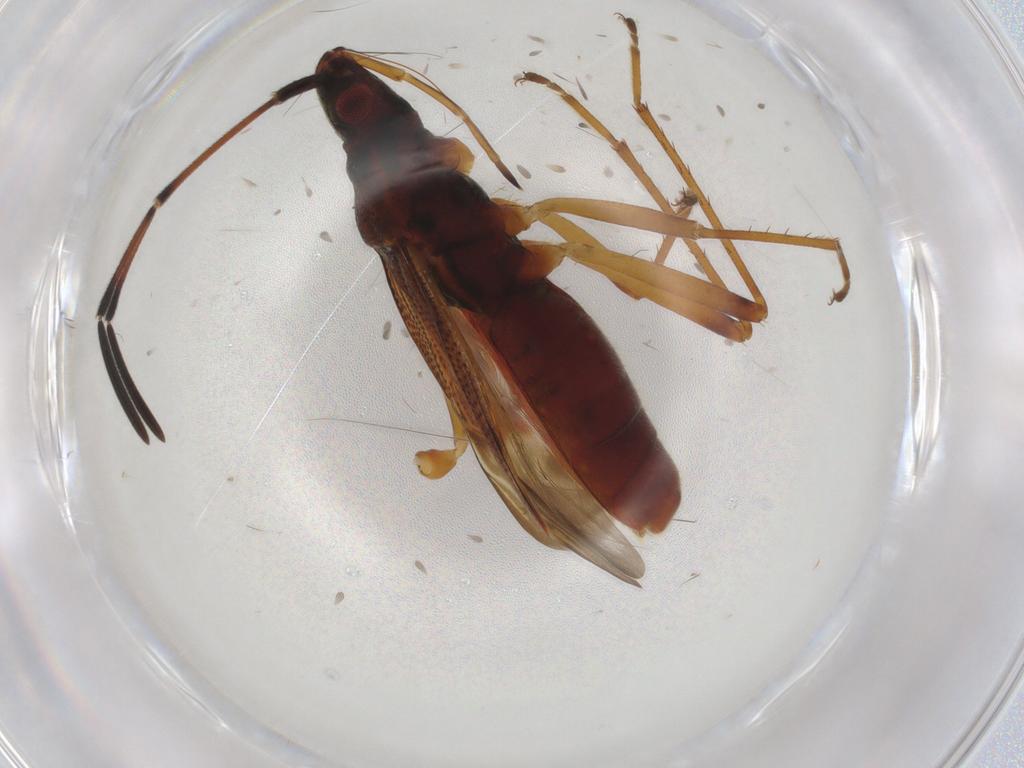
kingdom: Animalia
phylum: Arthropoda
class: Insecta
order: Hemiptera
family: Rhyparochromidae
